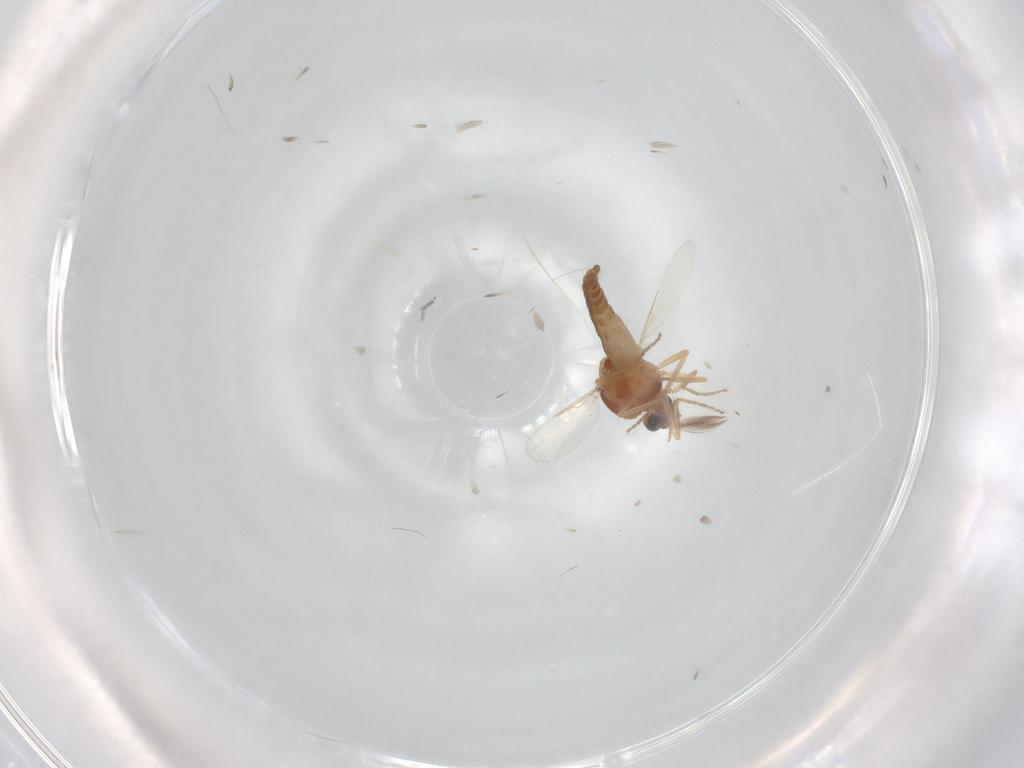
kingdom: Animalia
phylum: Arthropoda
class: Insecta
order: Diptera
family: Ceratopogonidae
